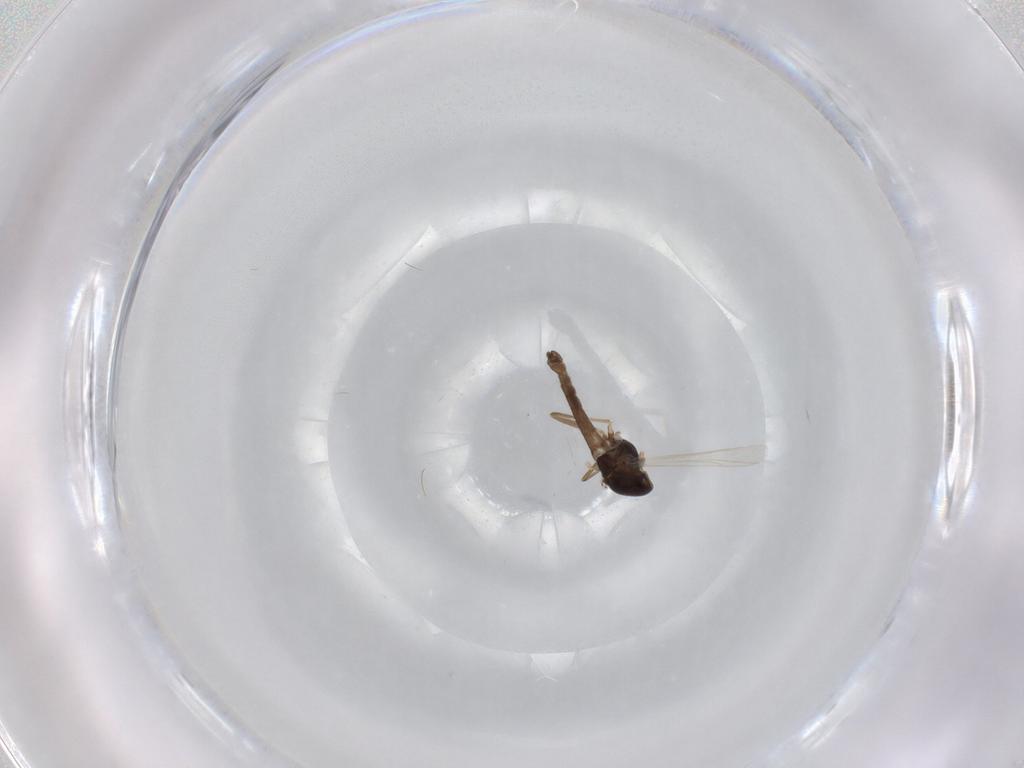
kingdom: Animalia
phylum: Arthropoda
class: Insecta
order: Diptera
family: Chironomidae
